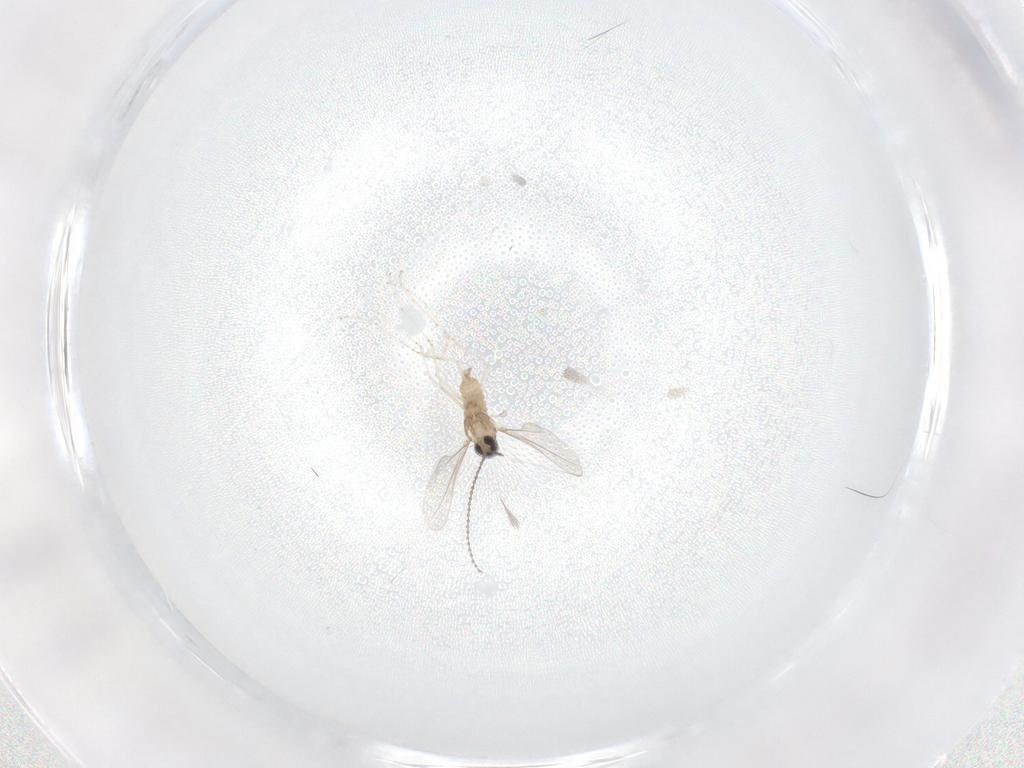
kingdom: Animalia
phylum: Arthropoda
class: Insecta
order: Diptera
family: Cecidomyiidae
